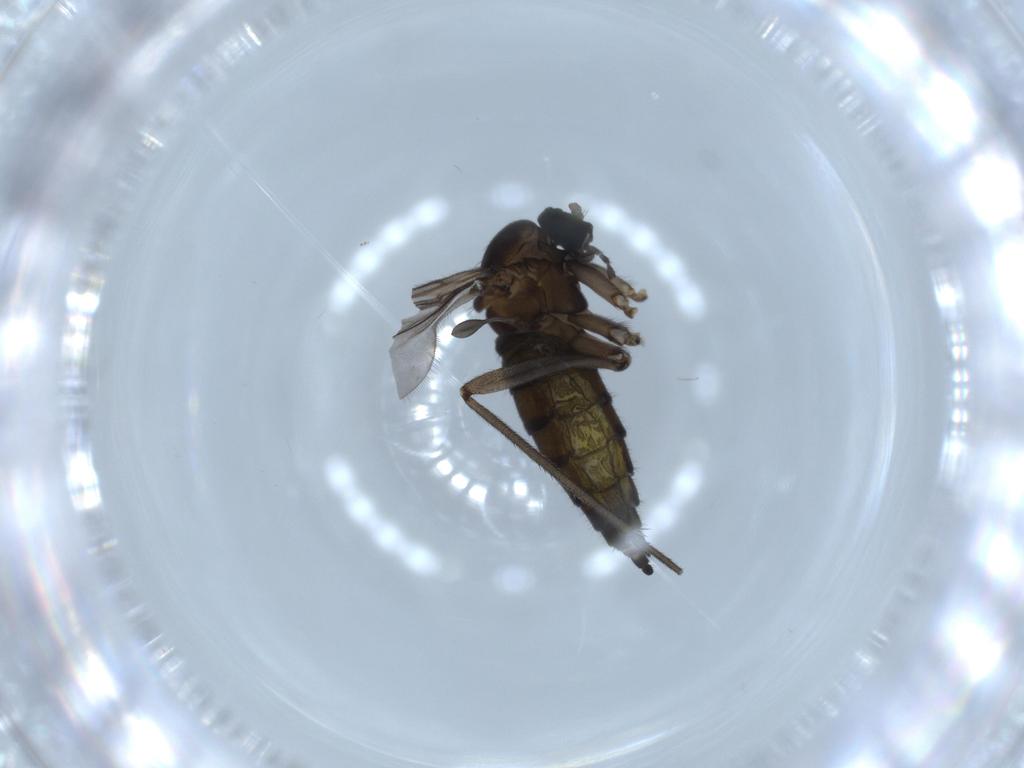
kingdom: Animalia
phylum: Arthropoda
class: Insecta
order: Diptera
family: Sciaridae
